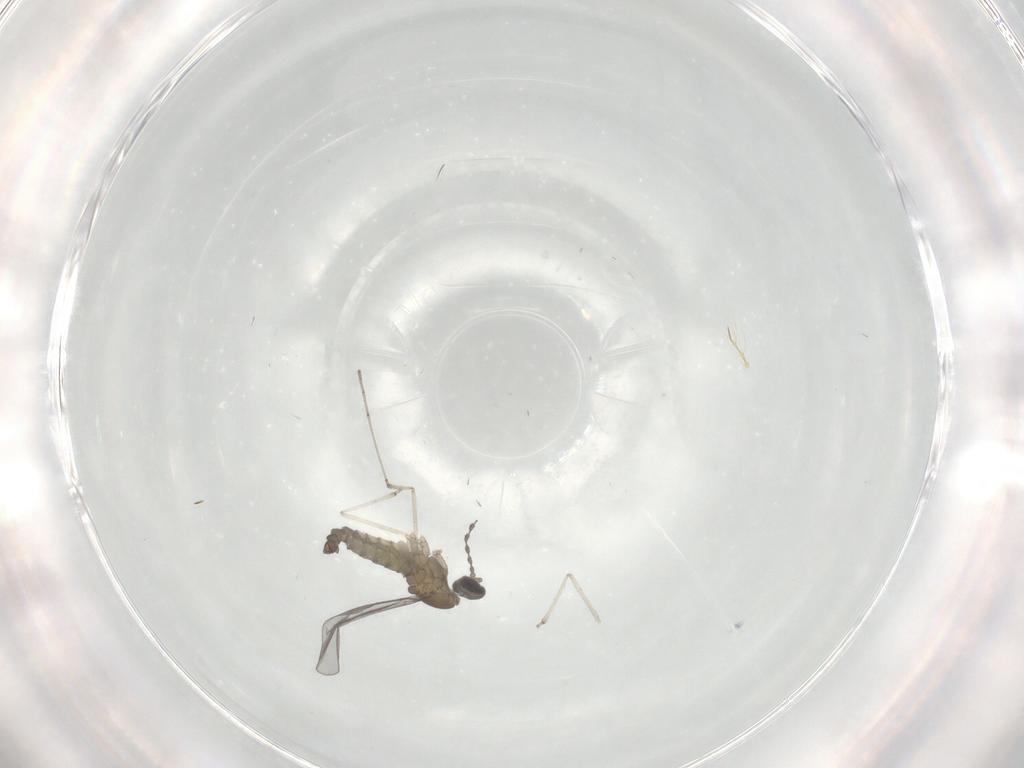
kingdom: Animalia
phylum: Arthropoda
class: Insecta
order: Diptera
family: Chironomidae
